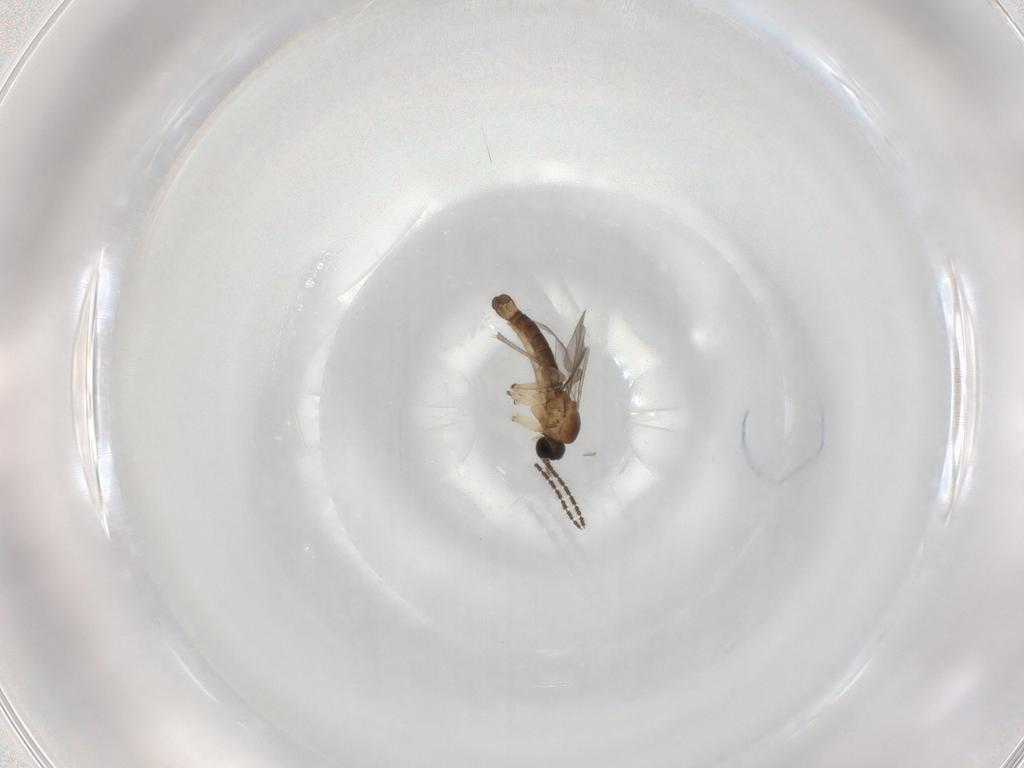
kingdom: Animalia
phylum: Arthropoda
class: Insecta
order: Diptera
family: Sciaridae
